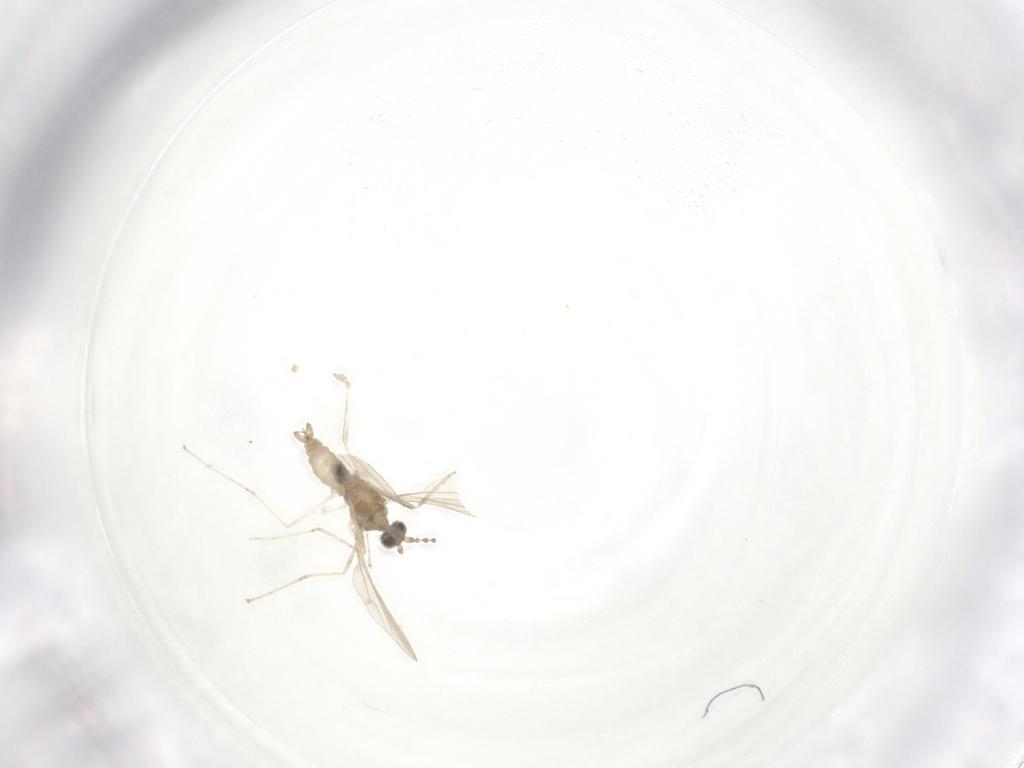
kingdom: Animalia
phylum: Arthropoda
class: Insecta
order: Diptera
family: Cecidomyiidae
